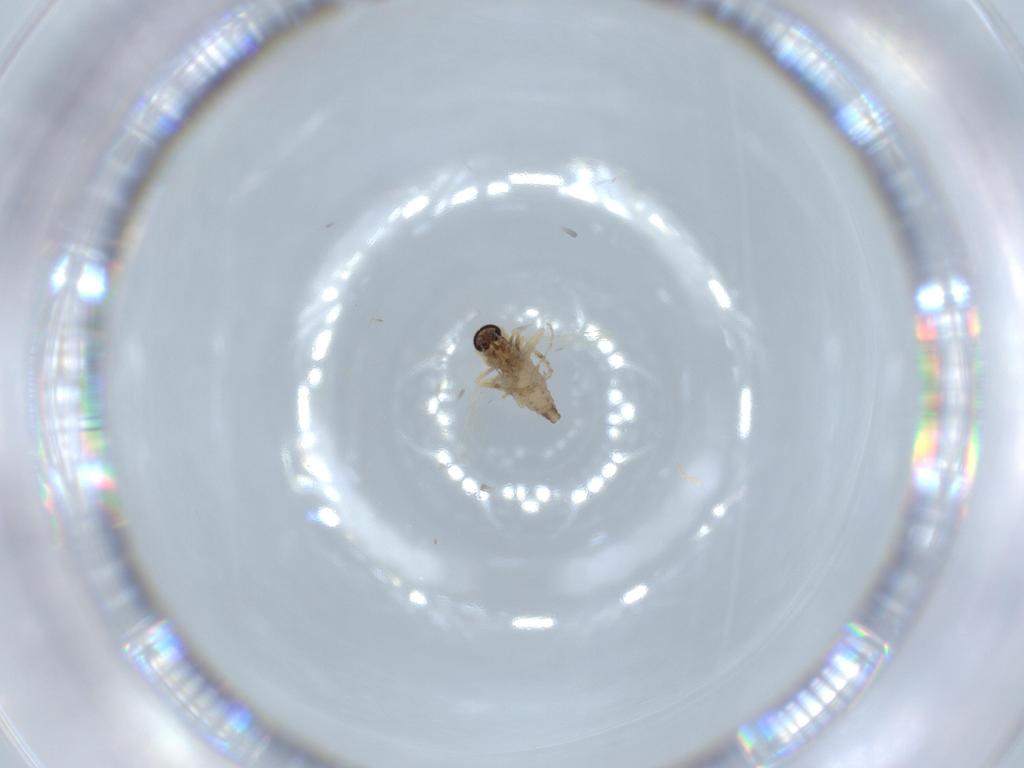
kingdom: Animalia
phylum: Arthropoda
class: Insecta
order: Diptera
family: Ceratopogonidae
